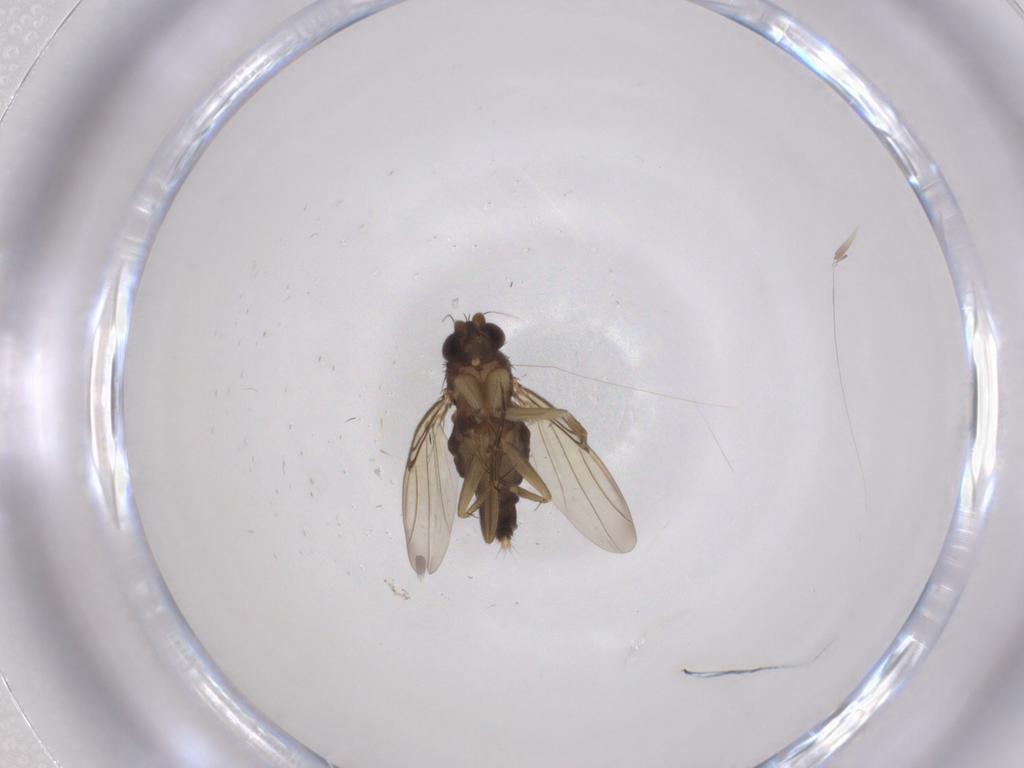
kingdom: Animalia
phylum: Arthropoda
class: Insecta
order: Diptera
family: Phoridae
